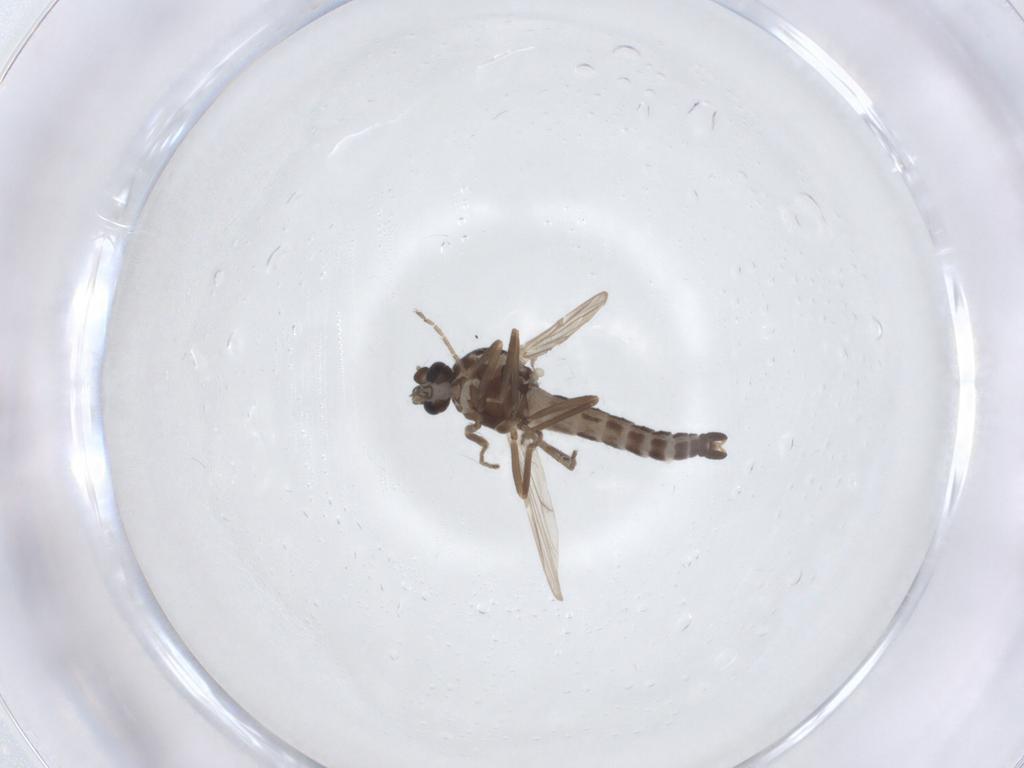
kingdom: Animalia
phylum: Arthropoda
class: Insecta
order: Diptera
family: Ceratopogonidae
